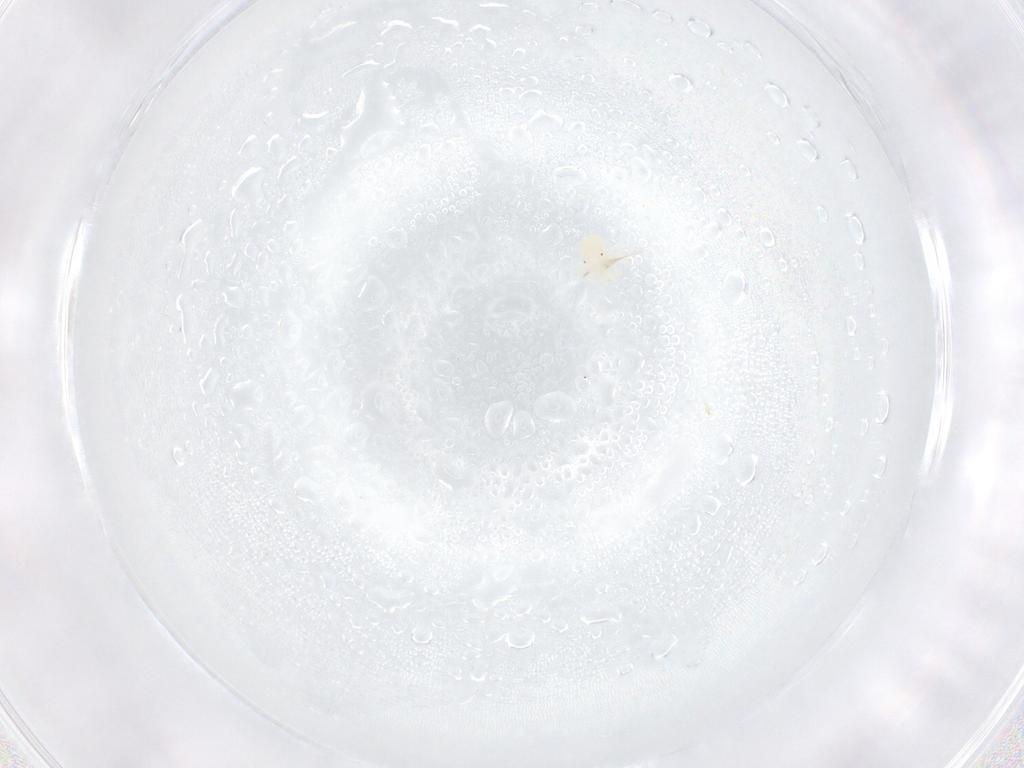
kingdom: Animalia
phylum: Arthropoda
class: Arachnida
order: Trombidiformes
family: Anystidae
